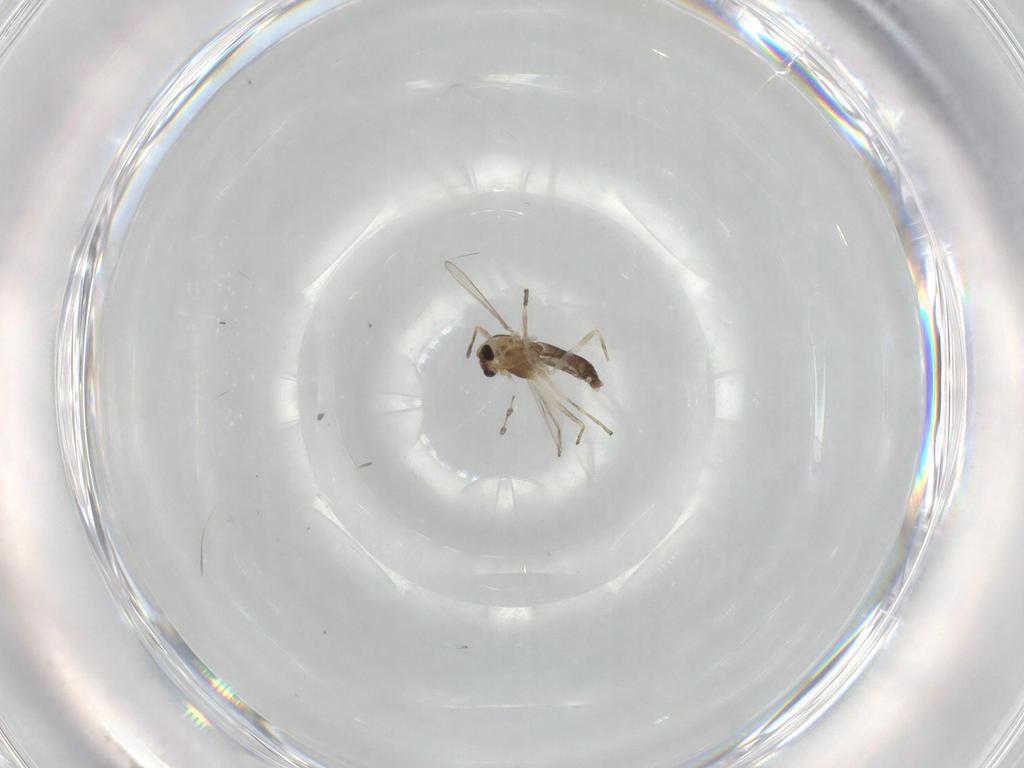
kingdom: Animalia
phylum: Arthropoda
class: Insecta
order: Diptera
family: Chironomidae
